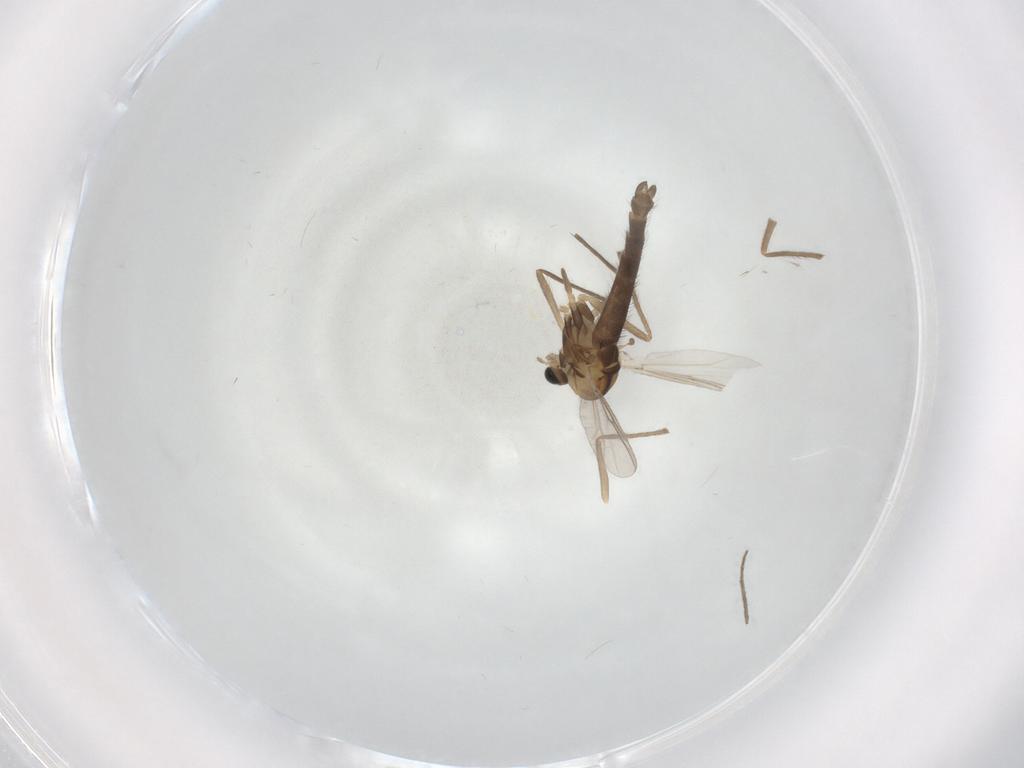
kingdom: Animalia
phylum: Arthropoda
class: Insecta
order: Diptera
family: Chironomidae
